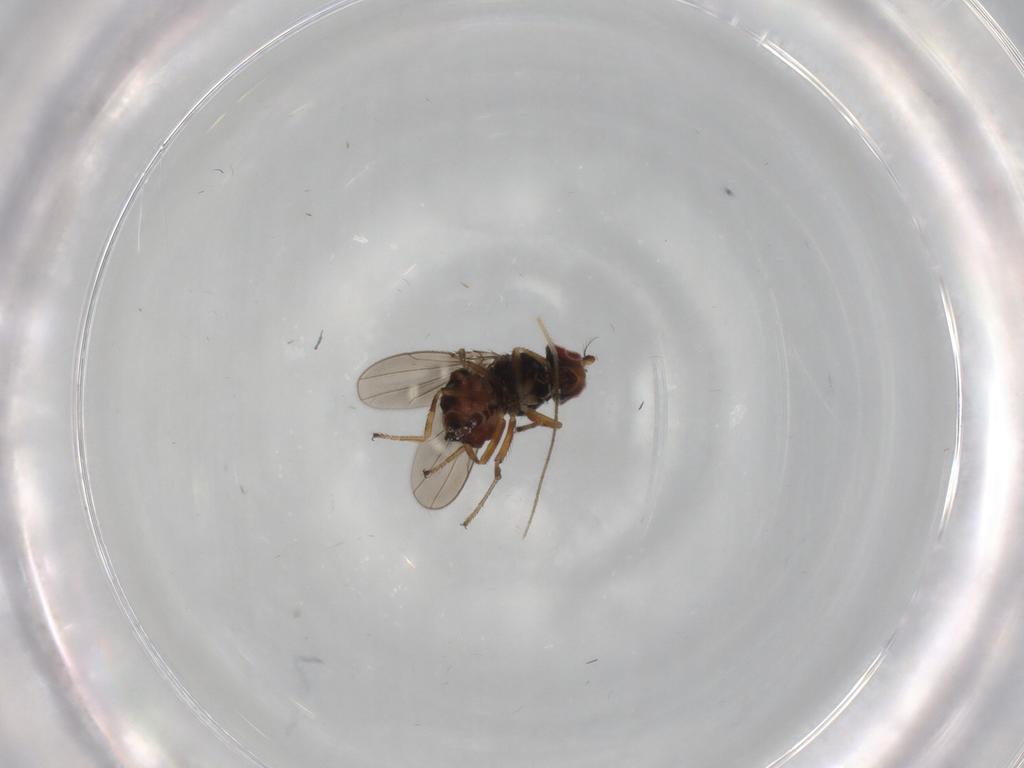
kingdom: Animalia
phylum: Arthropoda
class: Insecta
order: Diptera
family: Ephydridae
